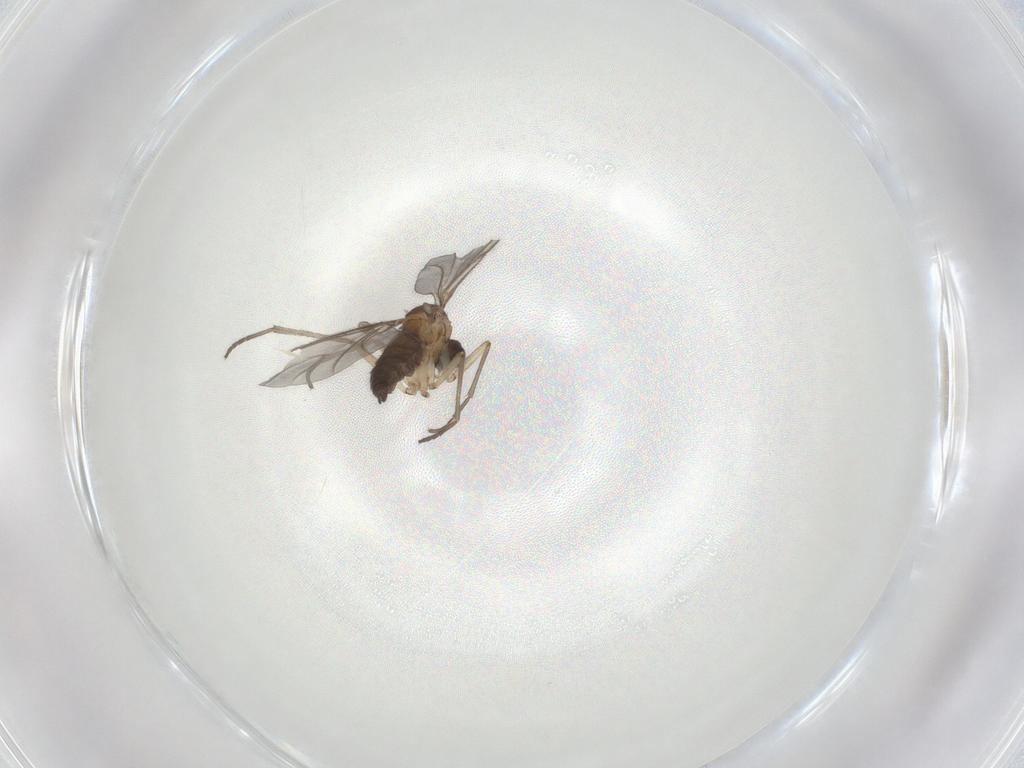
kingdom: Animalia
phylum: Arthropoda
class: Insecta
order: Diptera
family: Sciaridae
